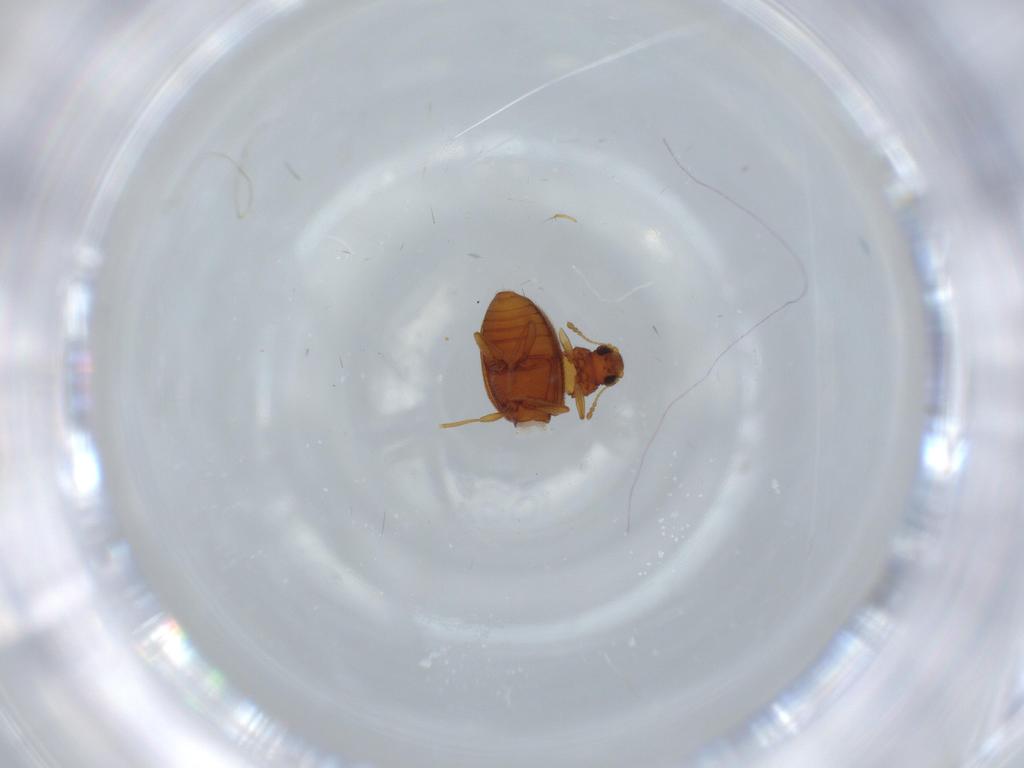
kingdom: Animalia
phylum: Arthropoda
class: Insecta
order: Coleoptera
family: Latridiidae
